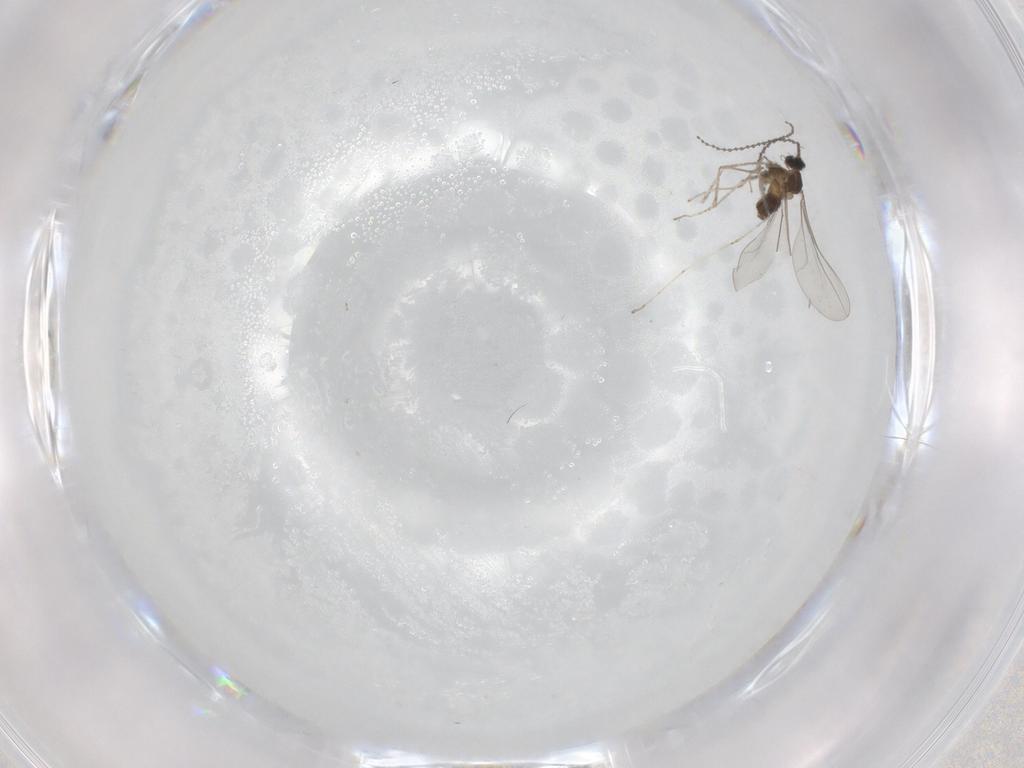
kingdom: Animalia
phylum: Arthropoda
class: Insecta
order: Diptera
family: Cecidomyiidae
